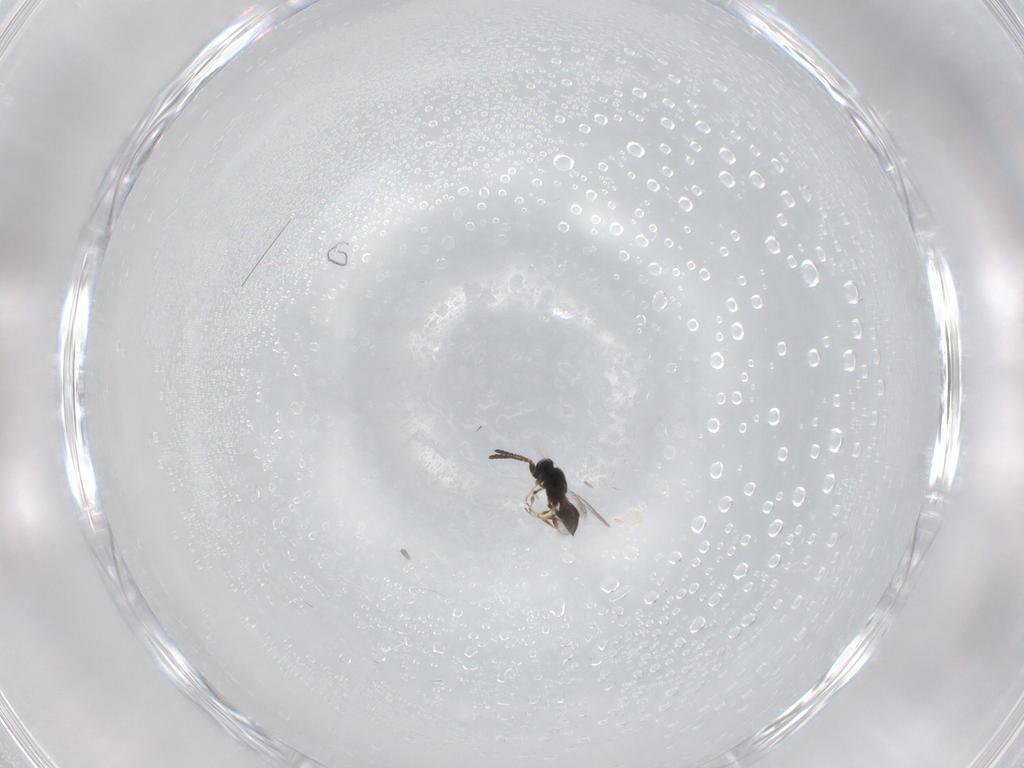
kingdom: Animalia
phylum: Arthropoda
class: Insecta
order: Hymenoptera
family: Scelionidae
